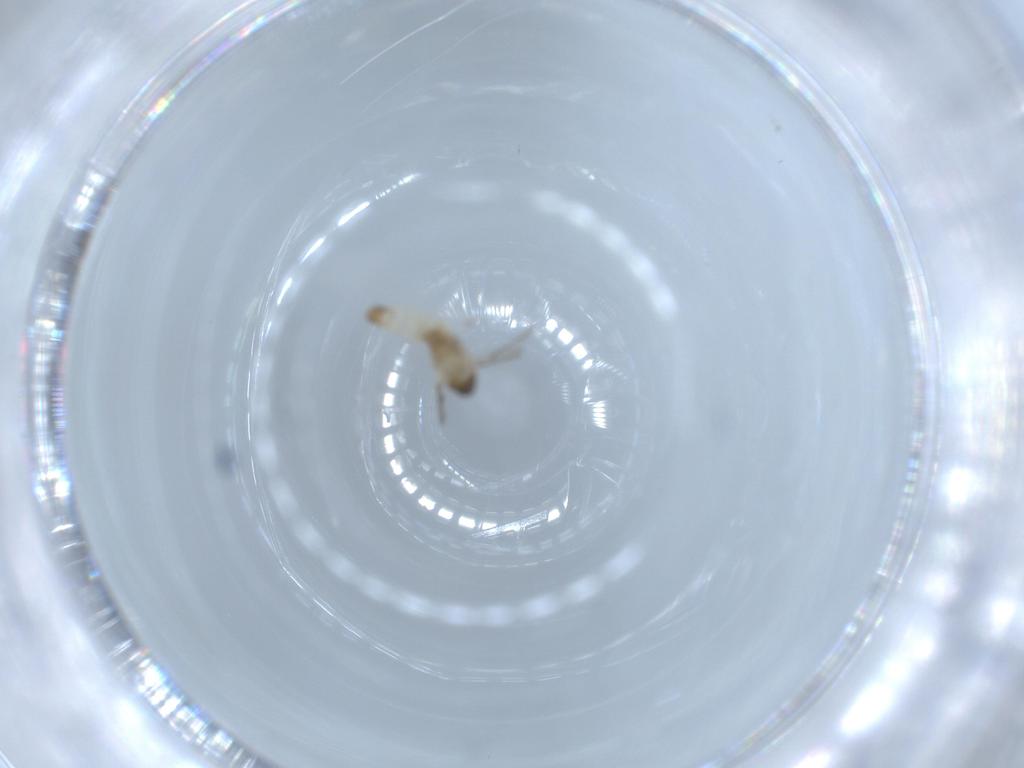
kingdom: Animalia
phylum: Arthropoda
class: Insecta
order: Diptera
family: Cecidomyiidae
